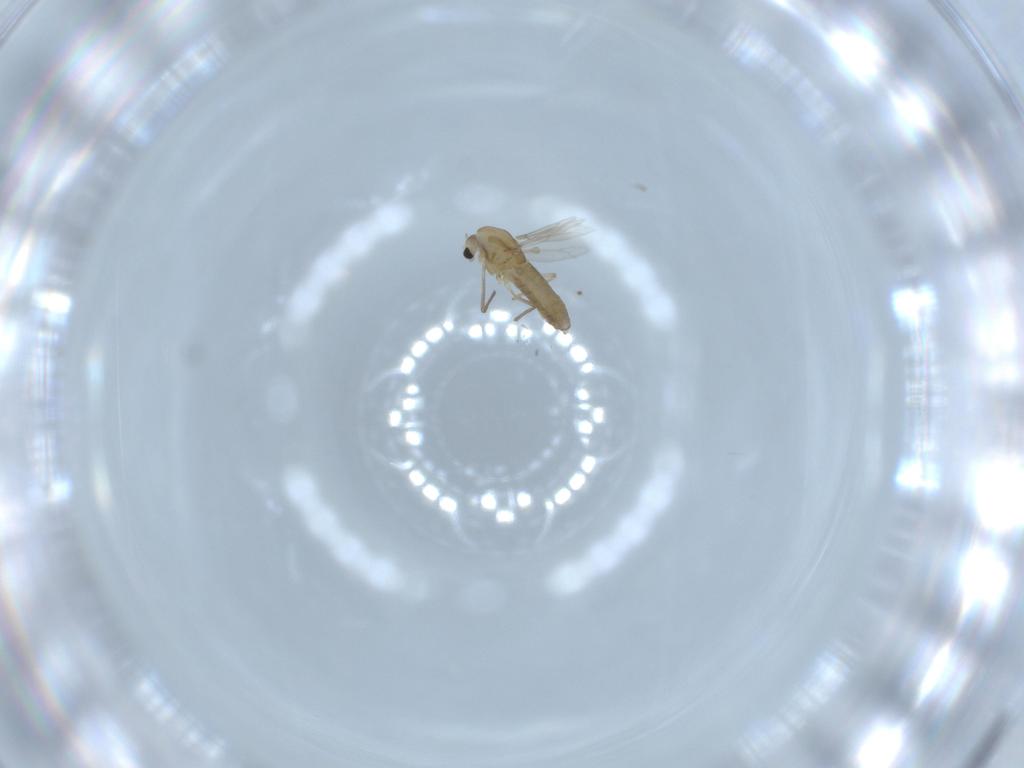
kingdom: Animalia
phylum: Arthropoda
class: Insecta
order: Diptera
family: Chironomidae
